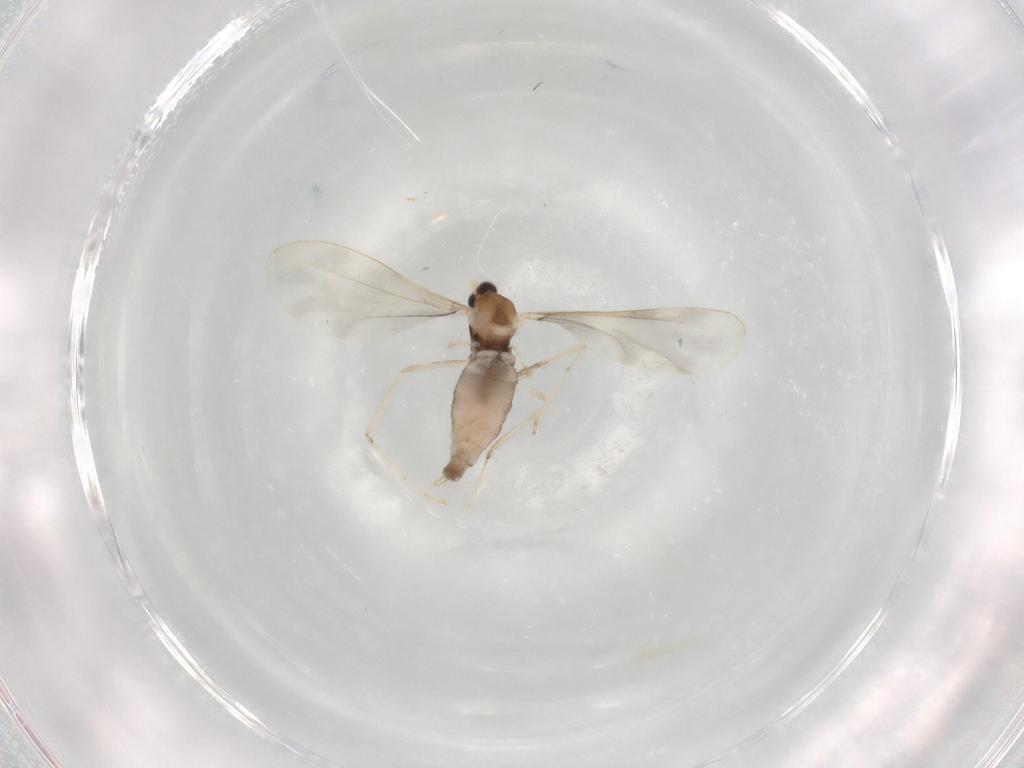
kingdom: Animalia
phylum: Arthropoda
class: Insecta
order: Diptera
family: Cecidomyiidae
